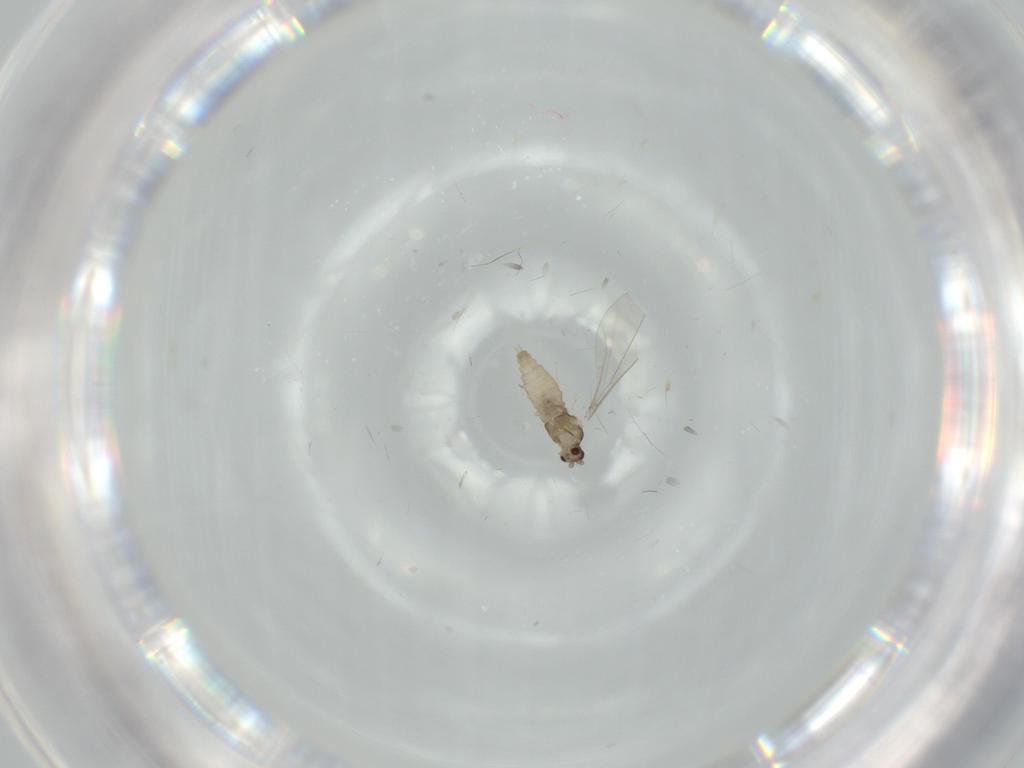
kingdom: Animalia
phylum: Arthropoda
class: Insecta
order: Diptera
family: Cecidomyiidae
